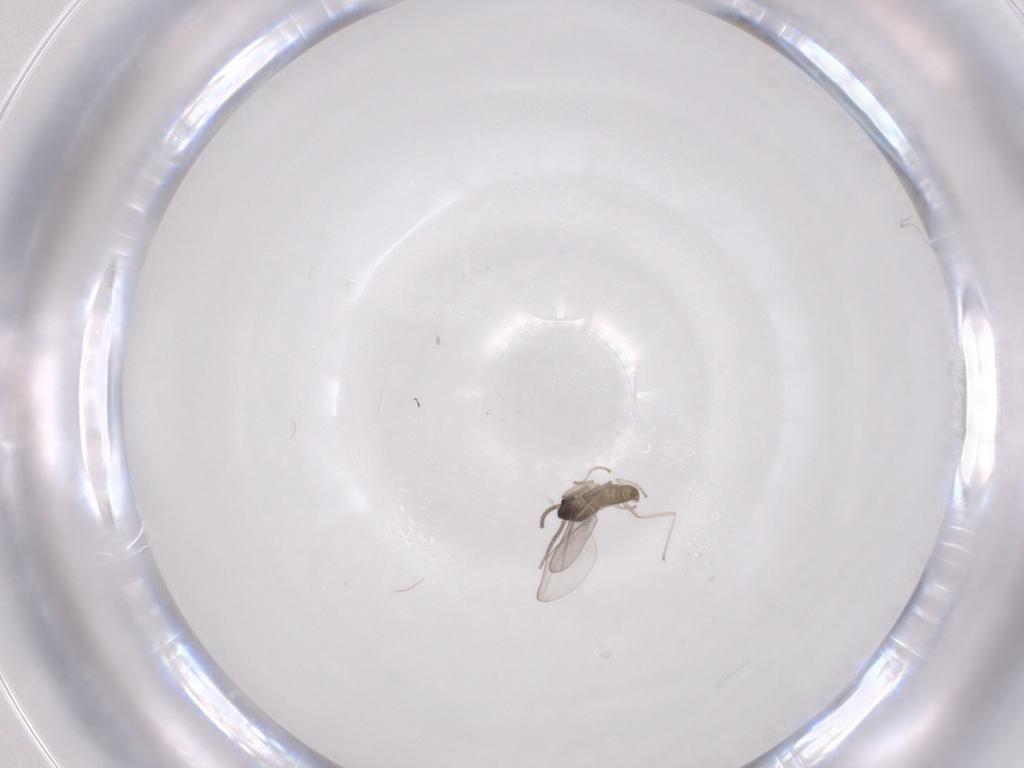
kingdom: Animalia
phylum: Arthropoda
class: Insecta
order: Diptera
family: Cecidomyiidae
